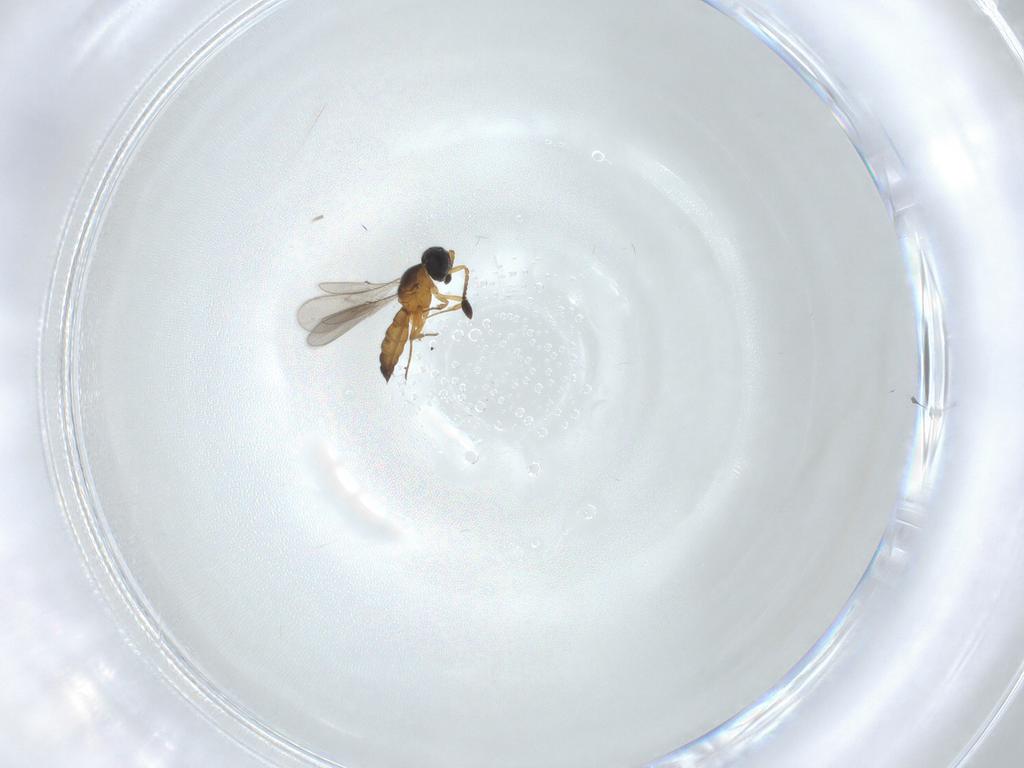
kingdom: Animalia
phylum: Arthropoda
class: Insecta
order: Hymenoptera
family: Scelionidae
